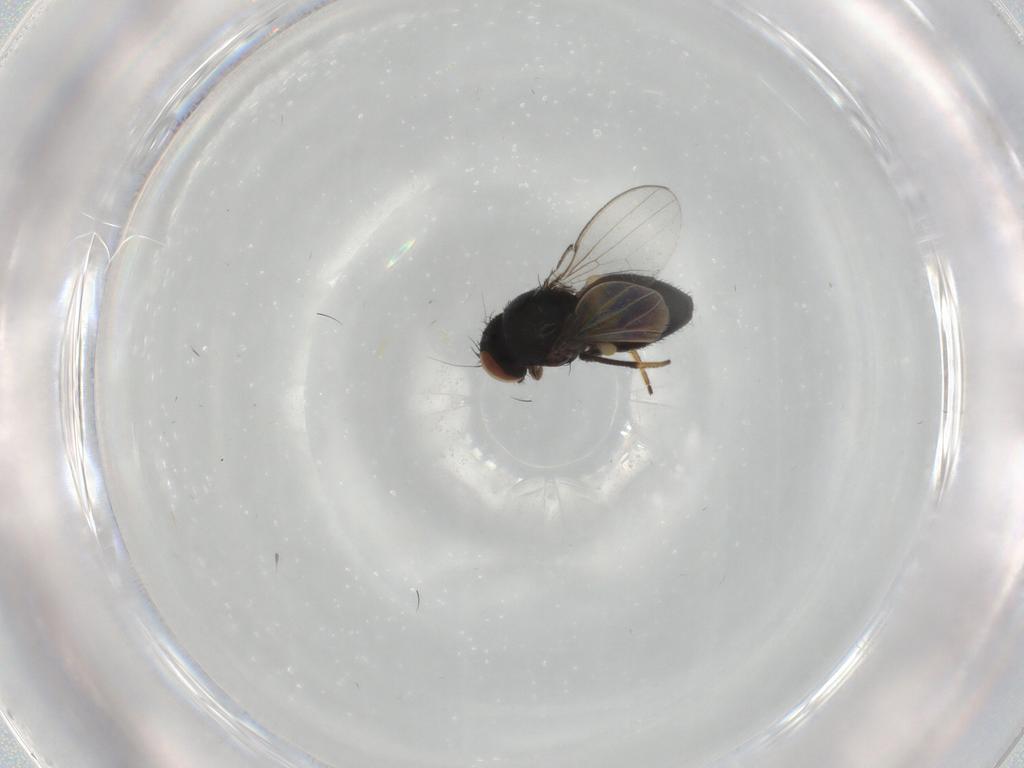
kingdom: Animalia
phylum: Arthropoda
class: Insecta
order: Diptera
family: Milichiidae
